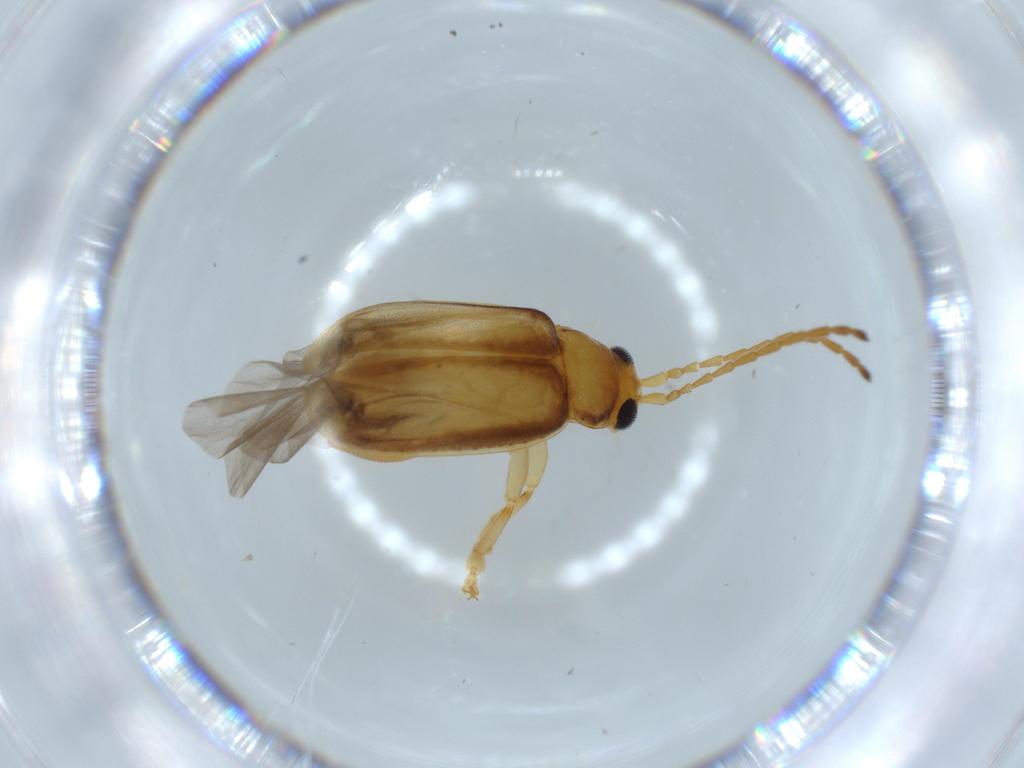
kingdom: Animalia
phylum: Arthropoda
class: Insecta
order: Coleoptera
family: Chrysomelidae
